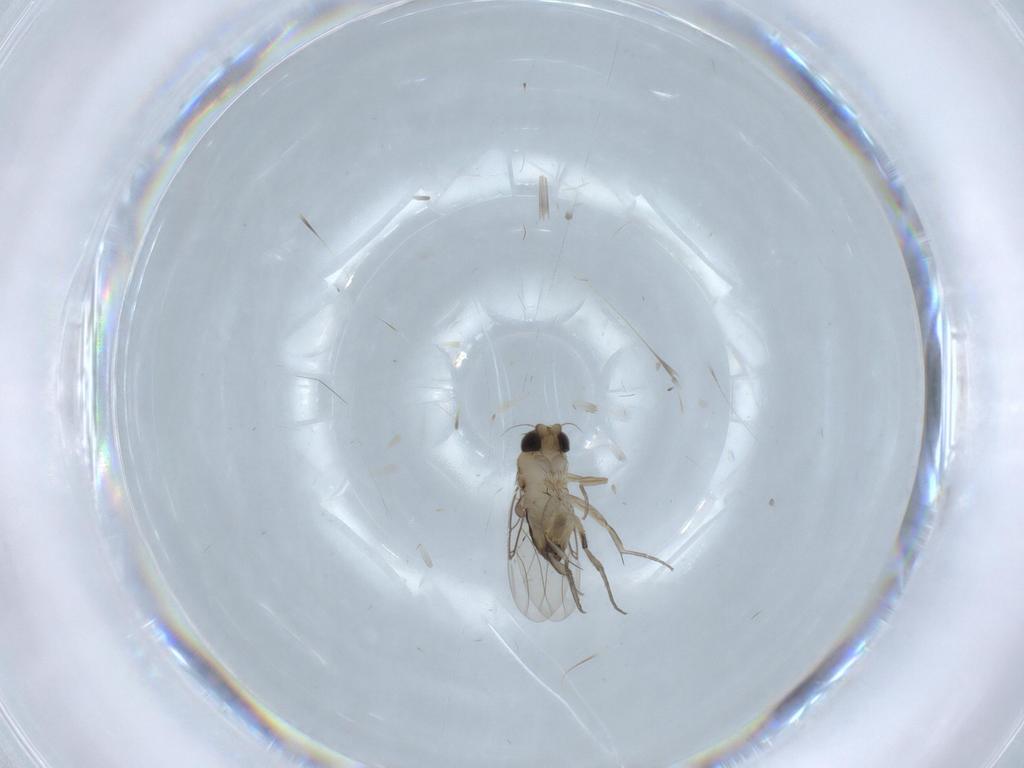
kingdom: Animalia
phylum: Arthropoda
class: Insecta
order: Diptera
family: Phoridae
